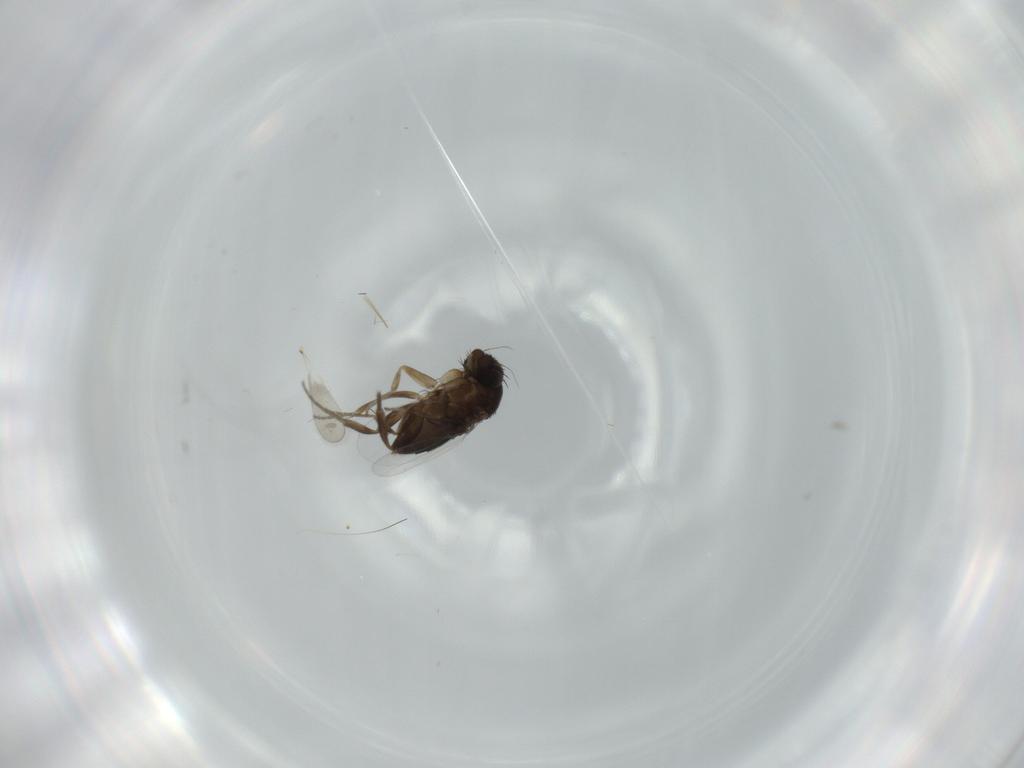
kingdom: Animalia
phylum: Arthropoda
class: Insecta
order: Diptera
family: Phoridae
